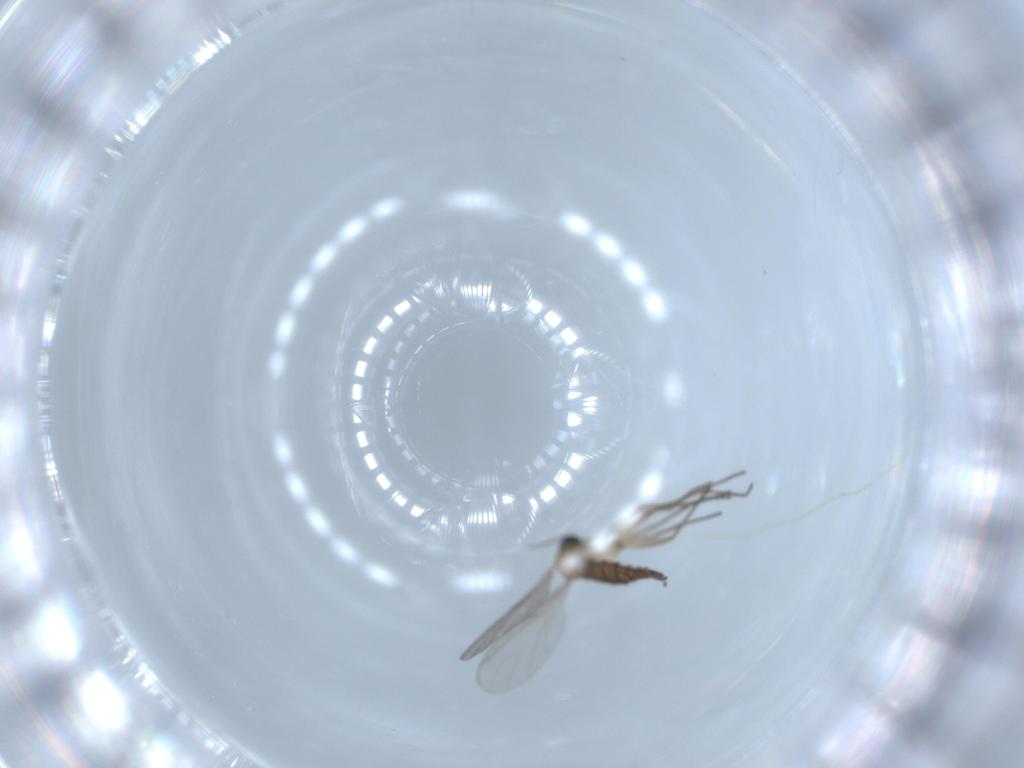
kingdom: Animalia
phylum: Arthropoda
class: Insecta
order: Diptera
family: Sciaridae
